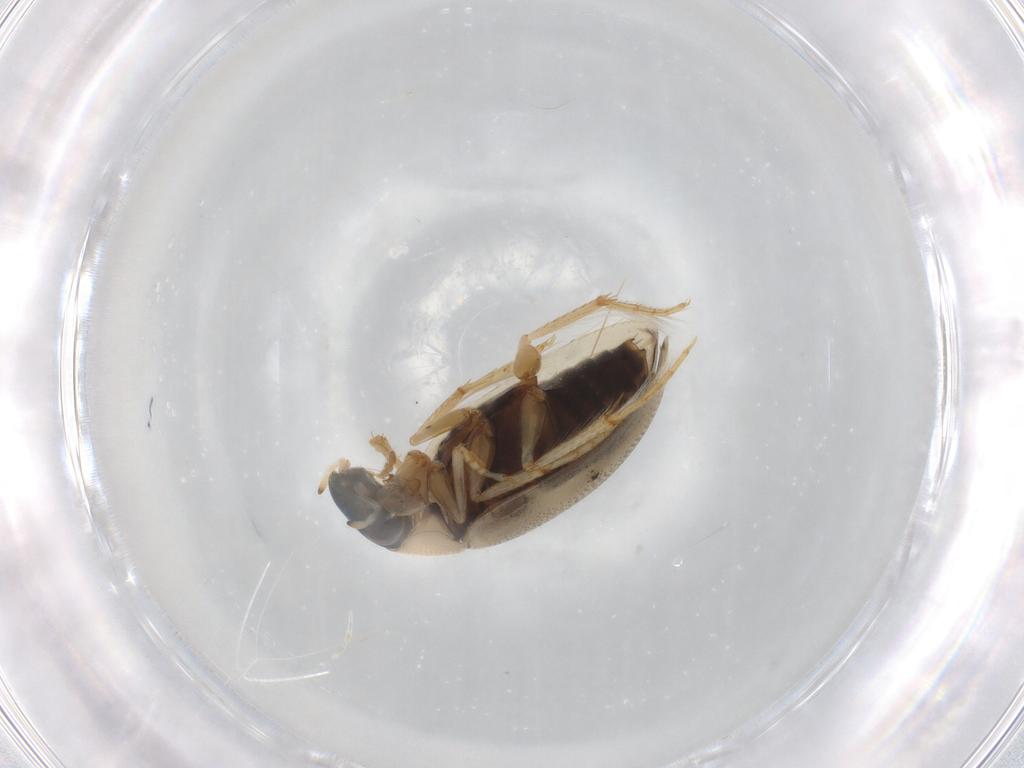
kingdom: Animalia
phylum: Arthropoda
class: Insecta
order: Coleoptera
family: Hydrophilidae
